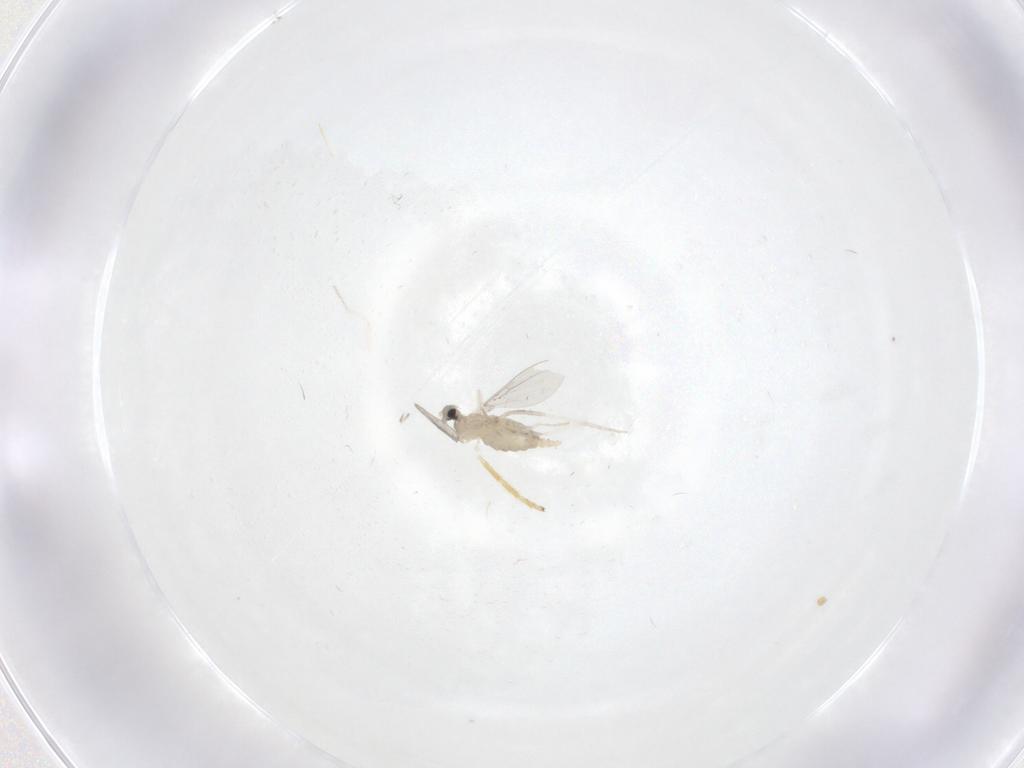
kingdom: Animalia
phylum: Arthropoda
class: Insecta
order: Diptera
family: Cecidomyiidae
